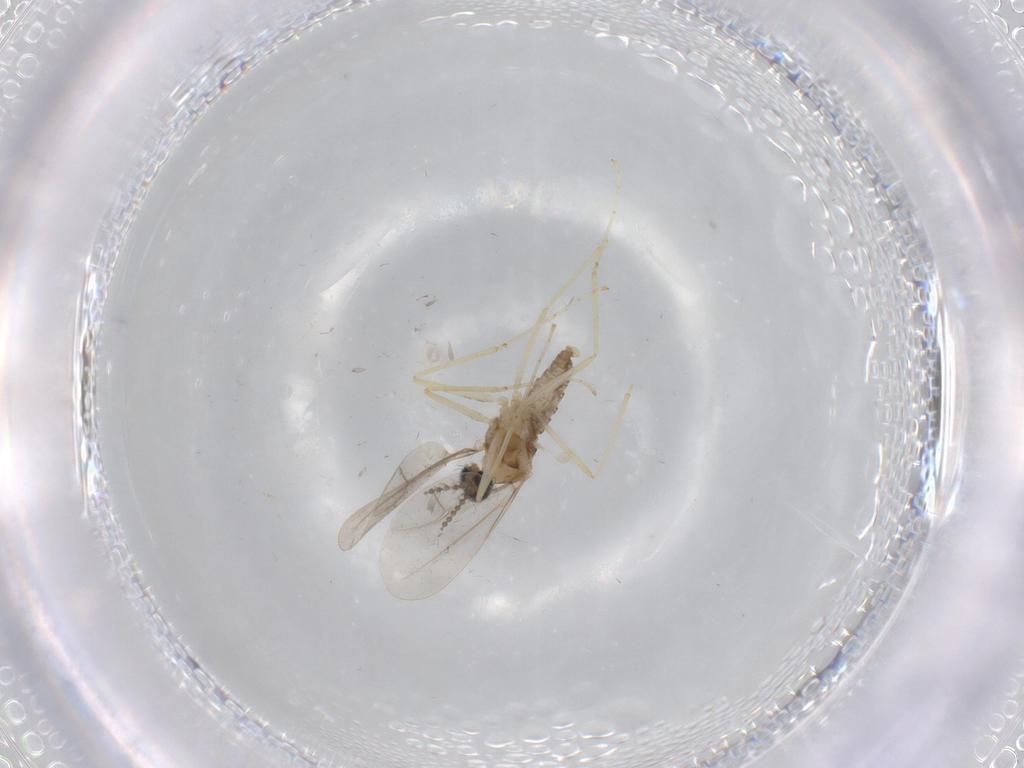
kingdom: Animalia
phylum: Arthropoda
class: Insecta
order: Diptera
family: Cecidomyiidae
